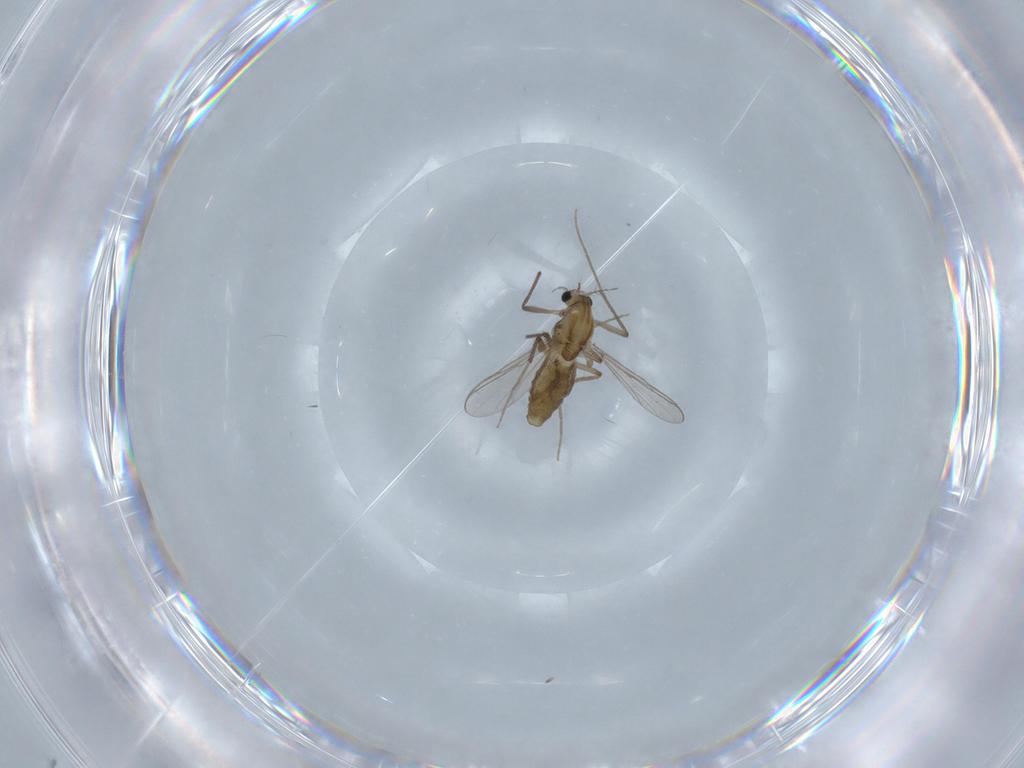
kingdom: Animalia
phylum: Arthropoda
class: Insecta
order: Diptera
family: Chironomidae
